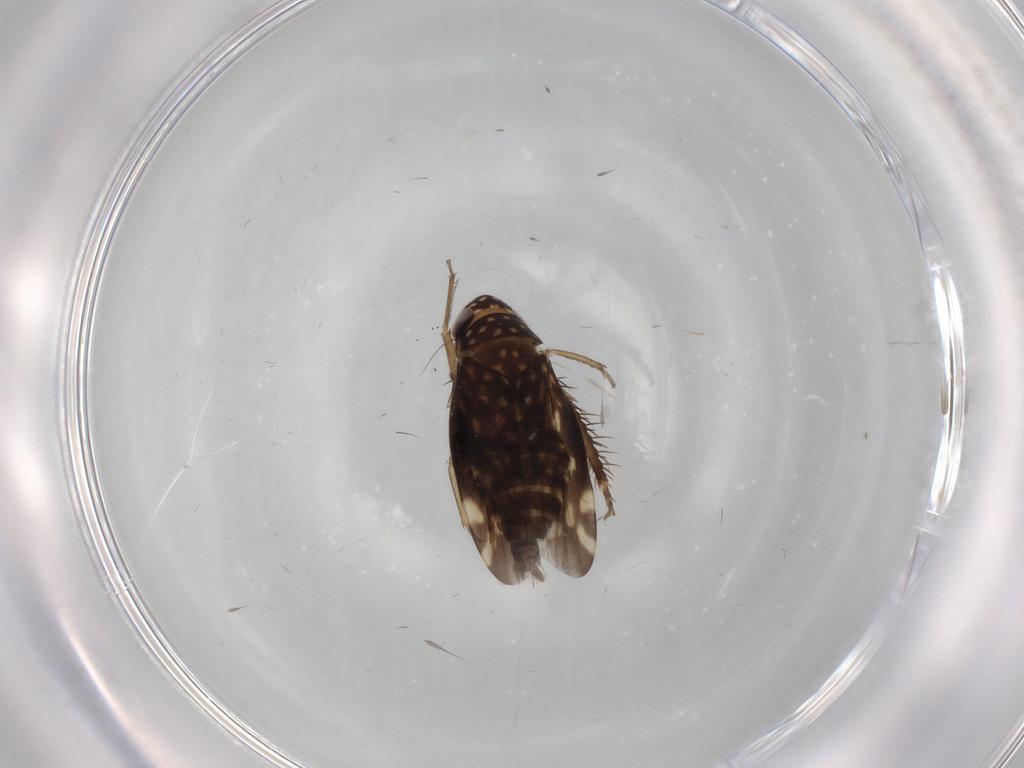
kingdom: Animalia
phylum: Arthropoda
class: Insecta
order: Hemiptera
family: Cicadellidae
